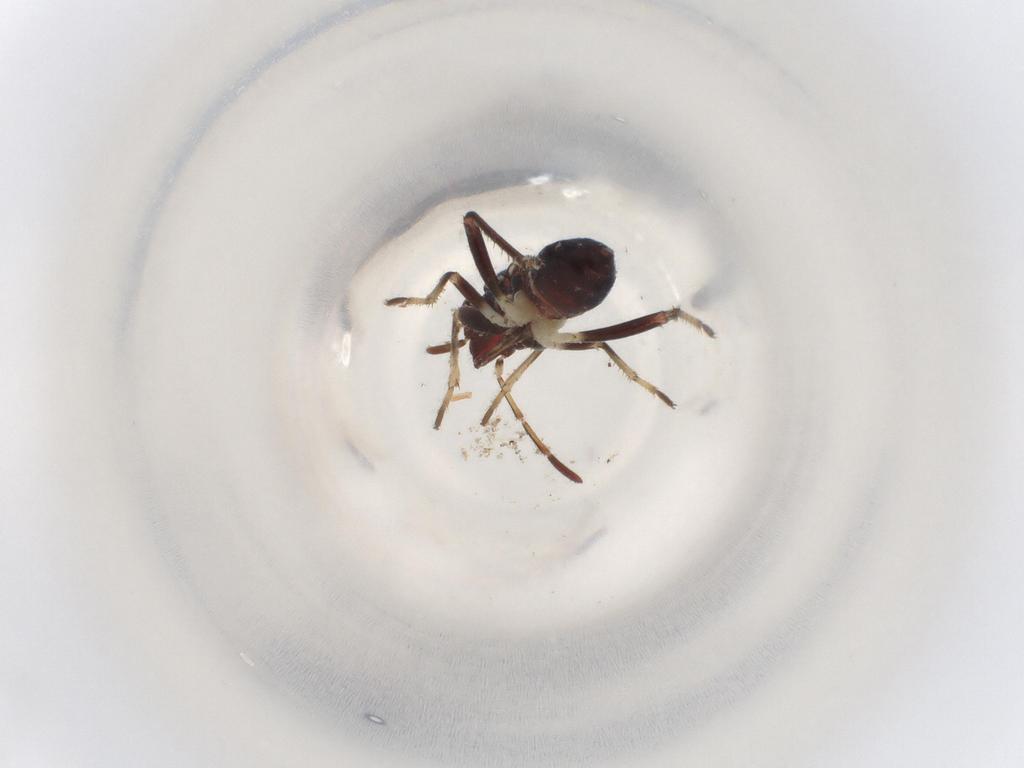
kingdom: Animalia
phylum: Arthropoda
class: Insecta
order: Hemiptera
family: Rhyparochromidae
